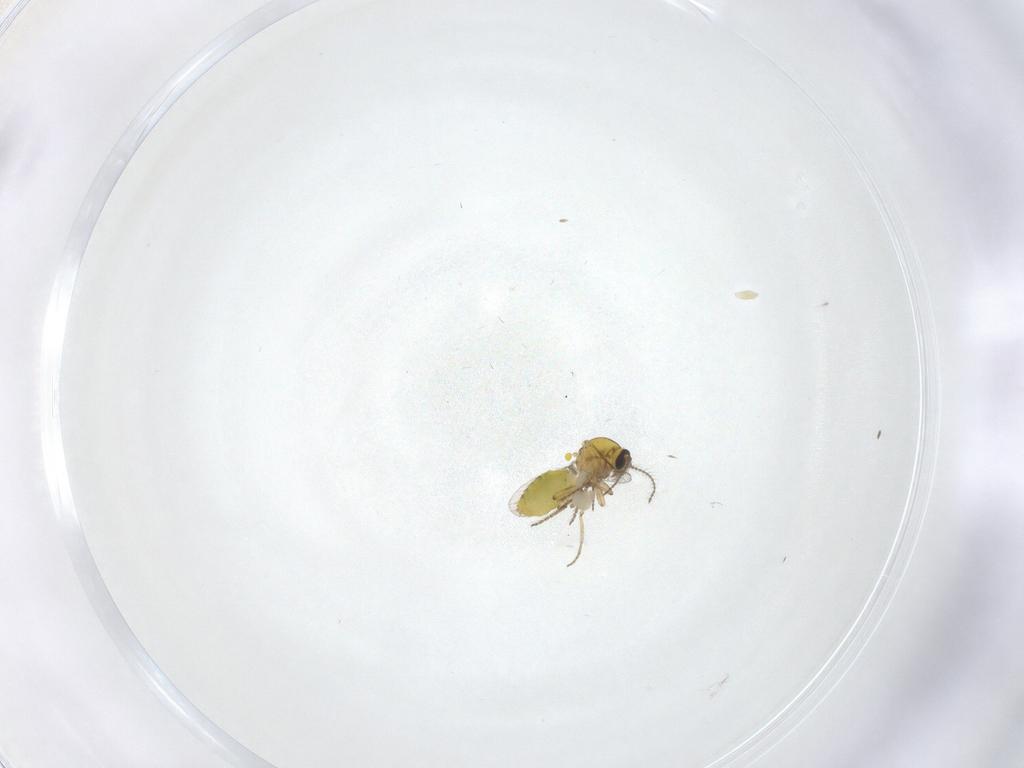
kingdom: Animalia
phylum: Arthropoda
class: Insecta
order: Diptera
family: Ceratopogonidae
